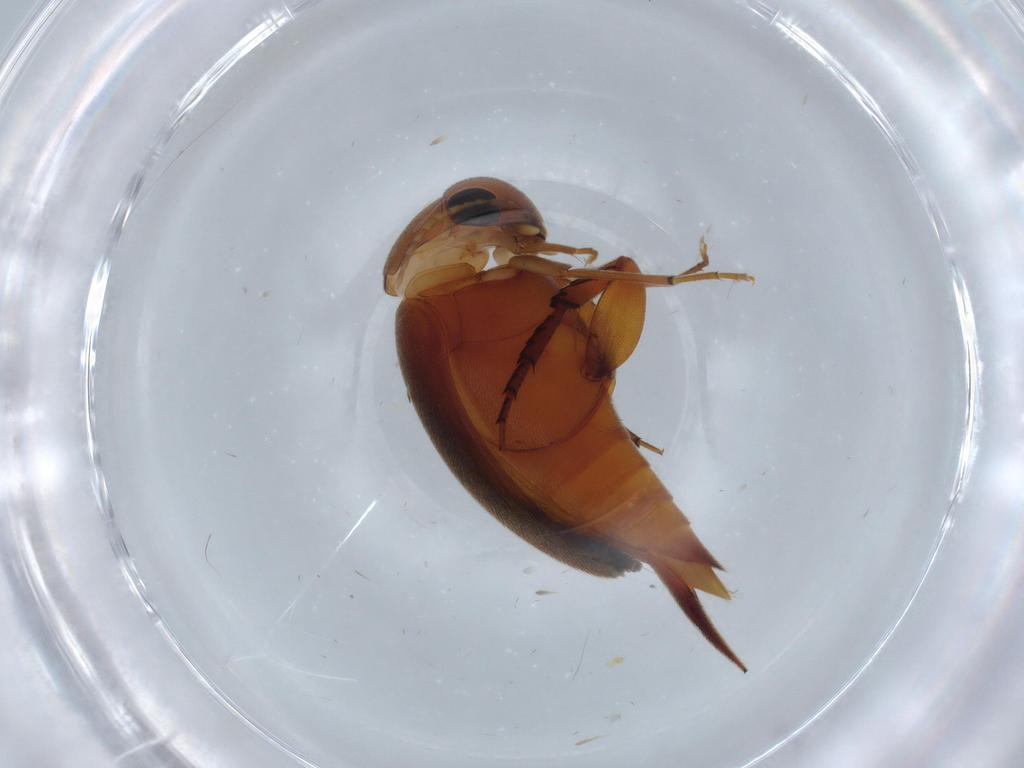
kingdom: Animalia
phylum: Arthropoda
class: Insecta
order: Coleoptera
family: Mordellidae
